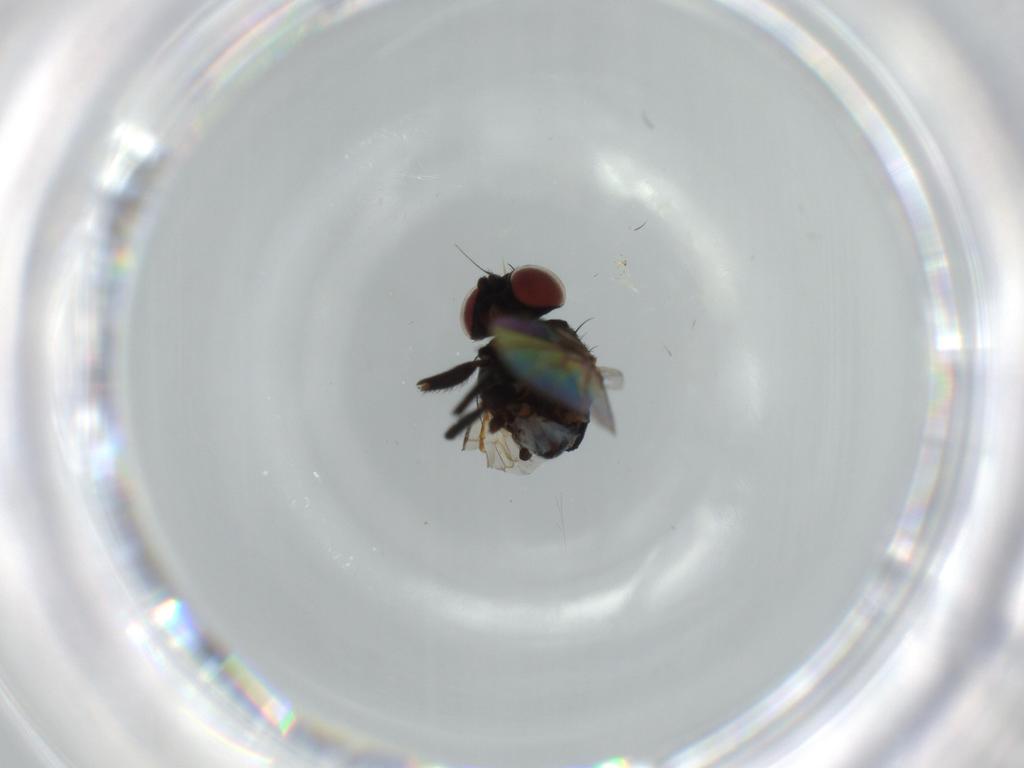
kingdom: Animalia
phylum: Arthropoda
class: Insecta
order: Diptera
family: Agromyzidae
